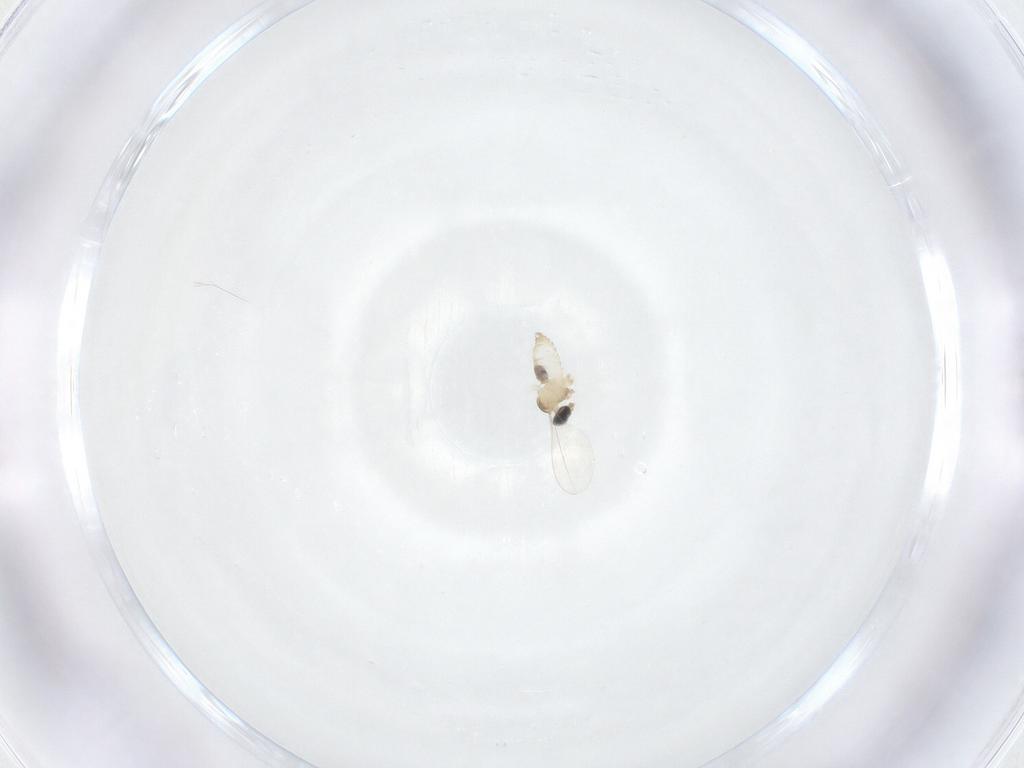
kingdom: Animalia
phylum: Arthropoda
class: Insecta
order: Diptera
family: Cecidomyiidae
